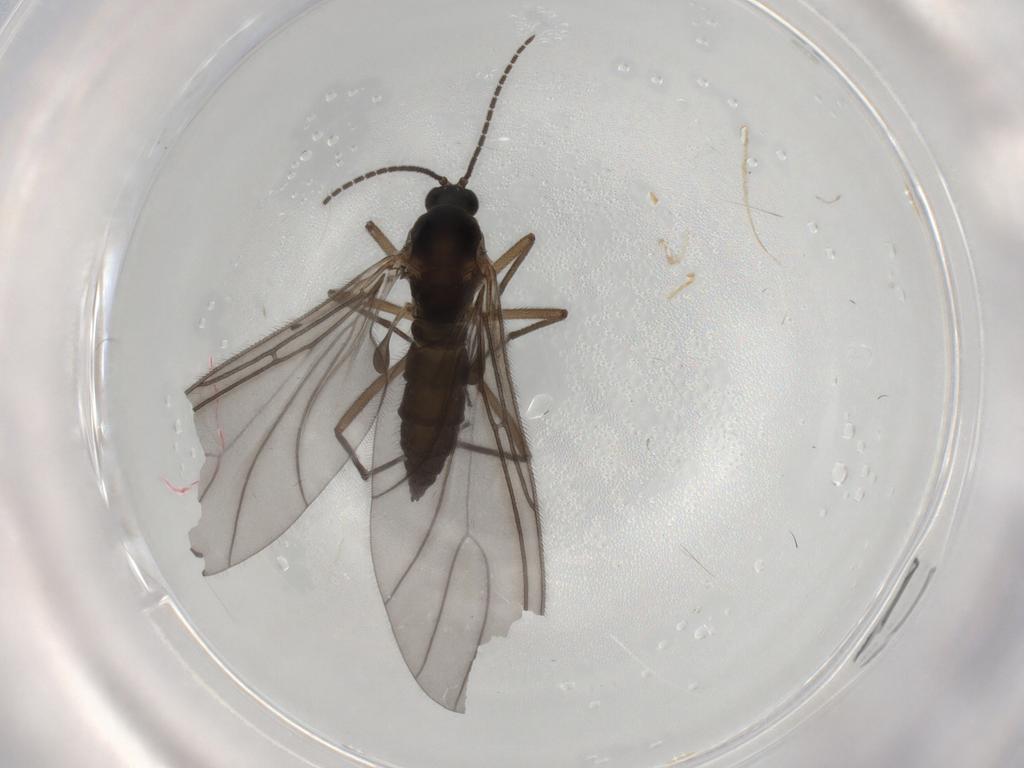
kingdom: Animalia
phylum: Arthropoda
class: Insecta
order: Diptera
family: Sciaridae
